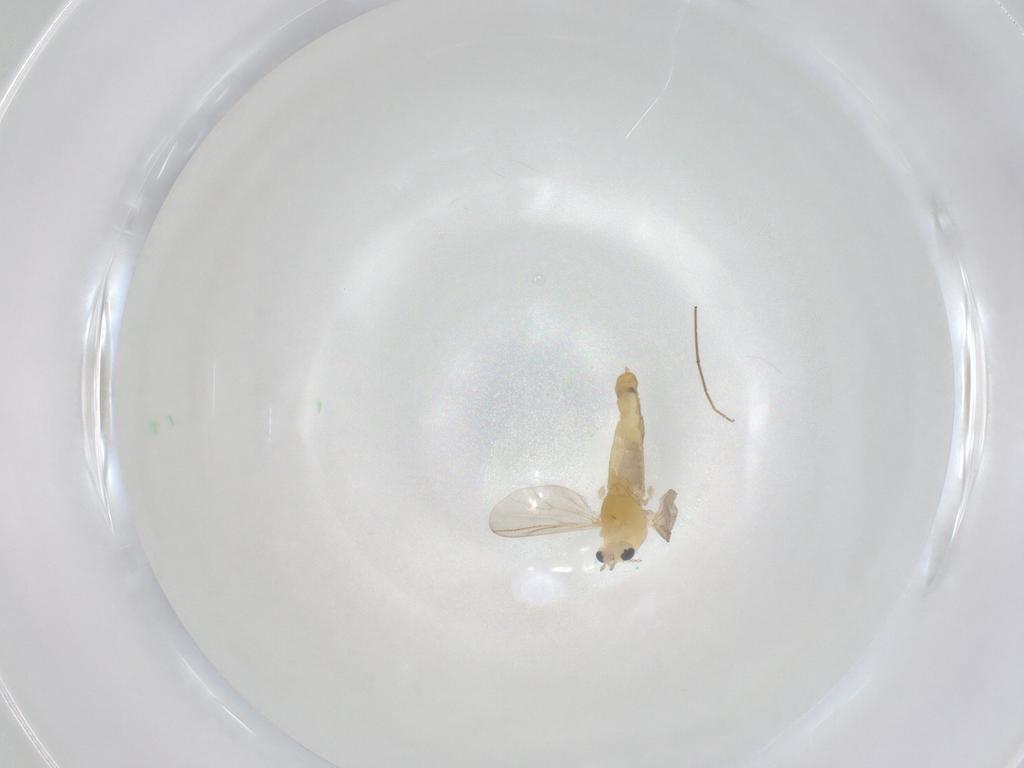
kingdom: Animalia
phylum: Arthropoda
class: Insecta
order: Diptera
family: Chironomidae
